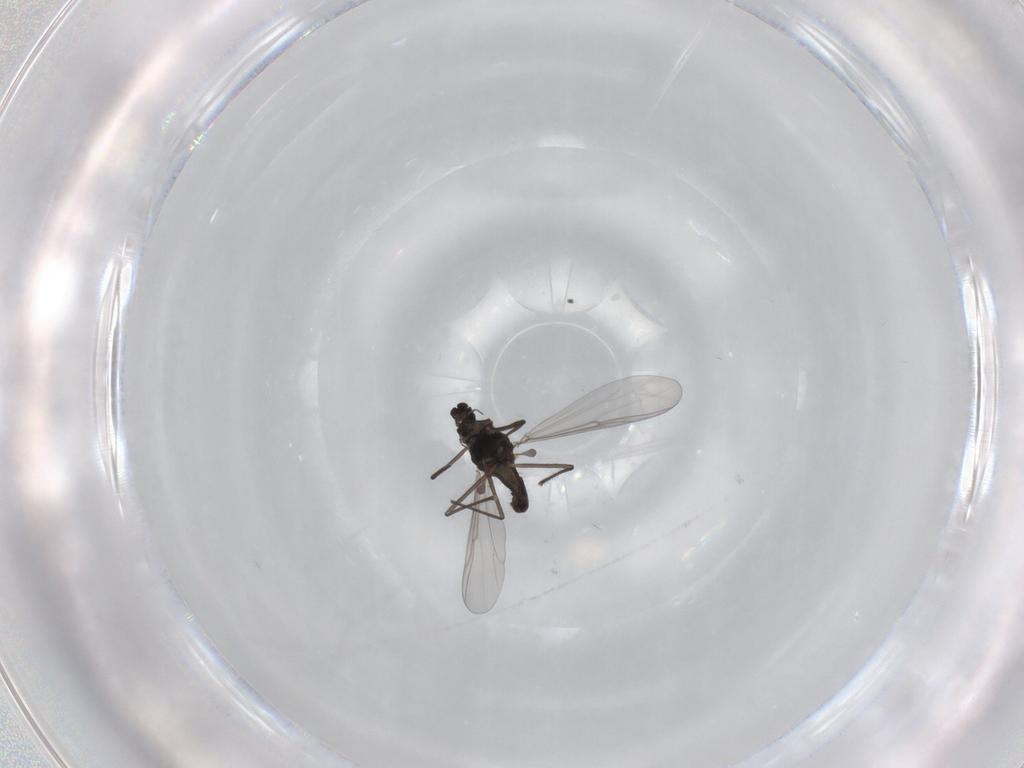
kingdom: Animalia
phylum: Arthropoda
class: Insecta
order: Diptera
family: Chironomidae
